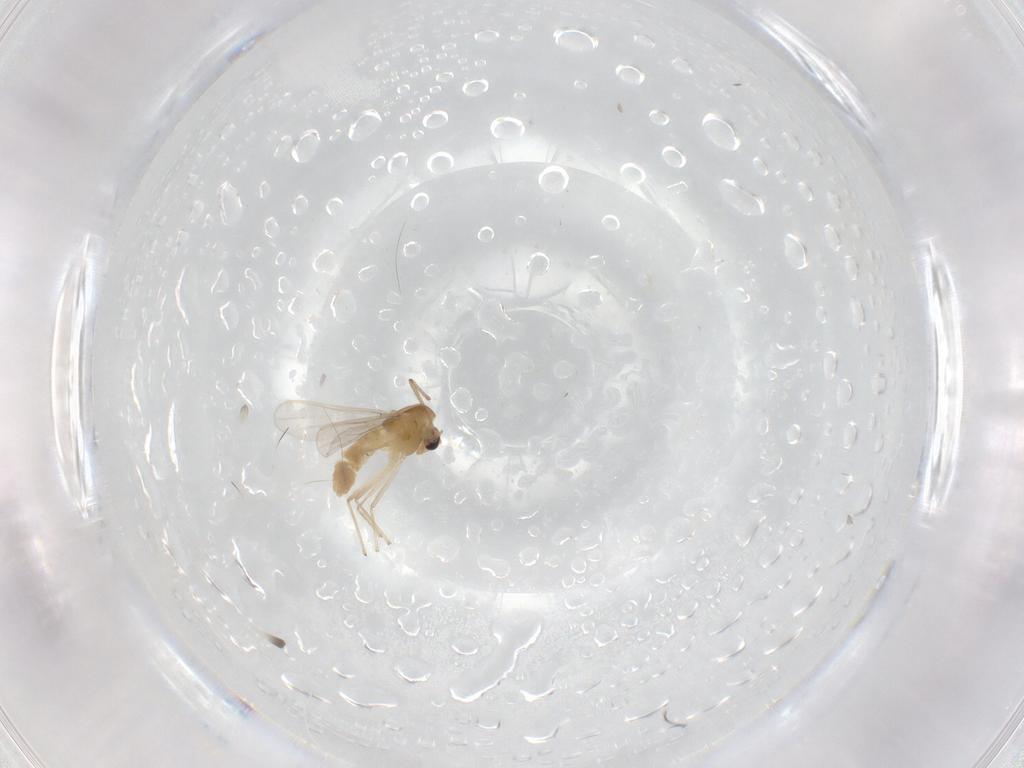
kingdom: Animalia
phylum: Arthropoda
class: Insecta
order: Diptera
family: Chironomidae
